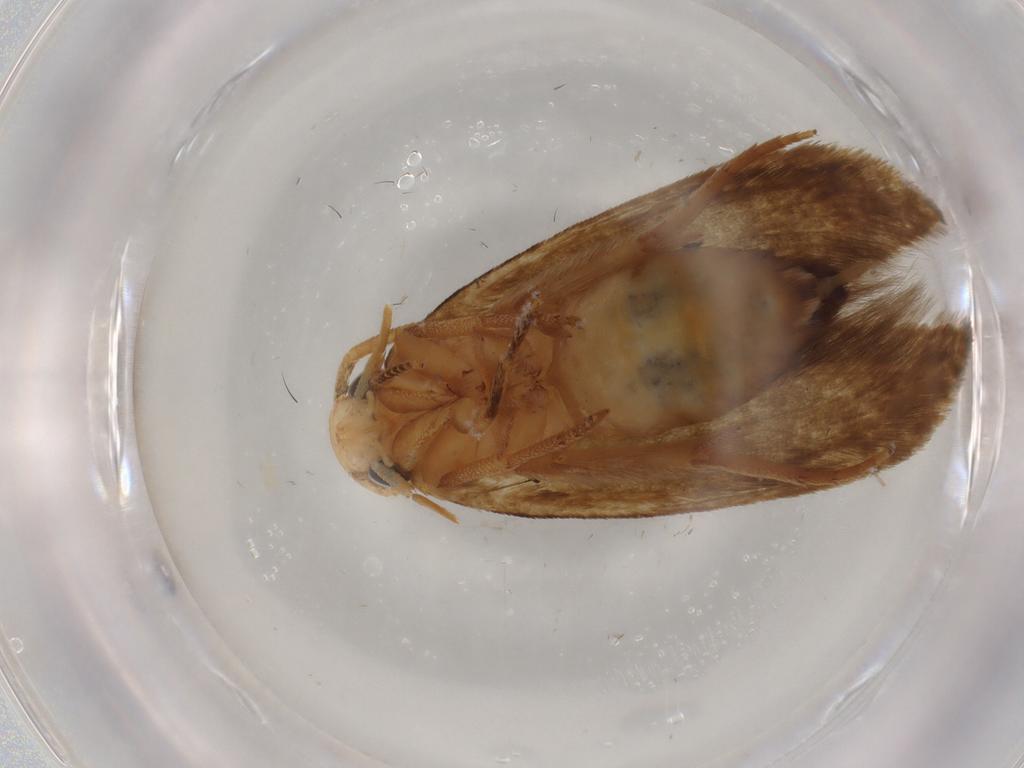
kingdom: Animalia
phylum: Arthropoda
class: Insecta
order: Lepidoptera
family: Tineidae
